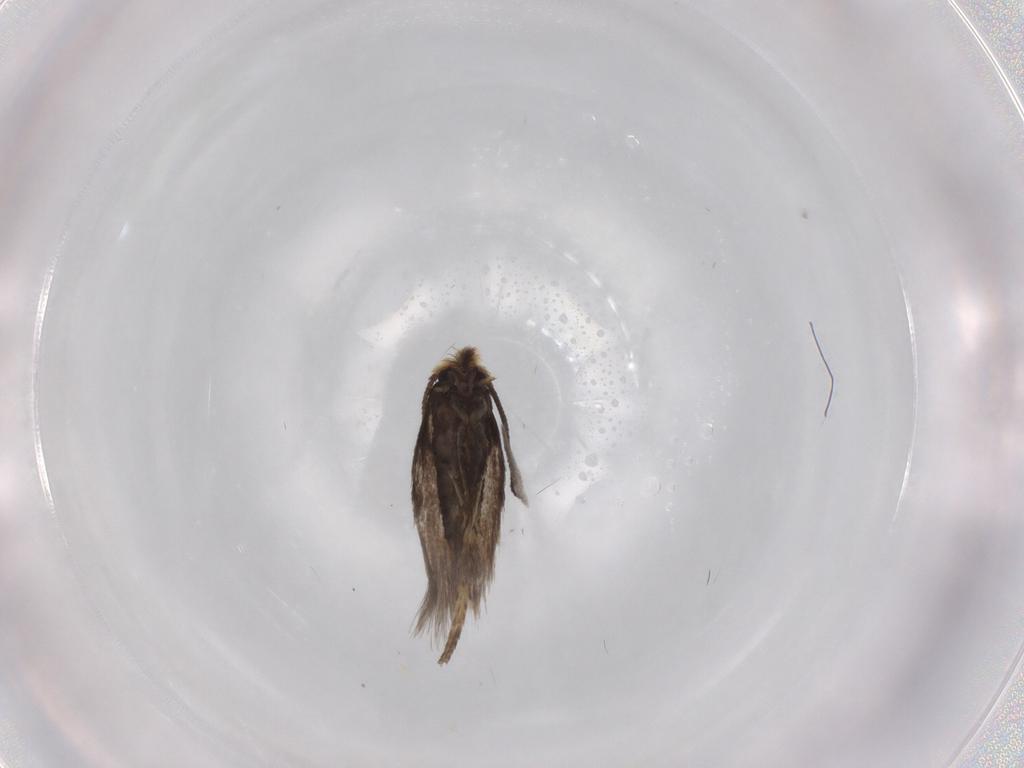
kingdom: Animalia
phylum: Arthropoda
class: Insecta
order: Lepidoptera
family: Nepticulidae
